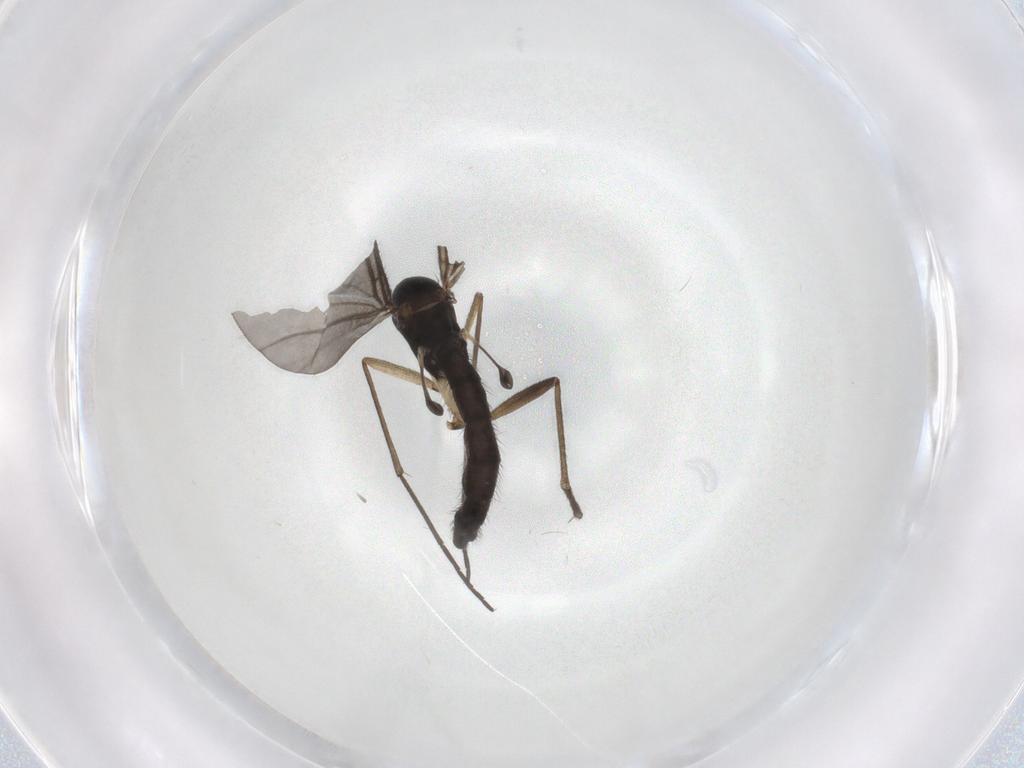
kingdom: Animalia
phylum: Arthropoda
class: Insecta
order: Diptera
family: Sciaridae
